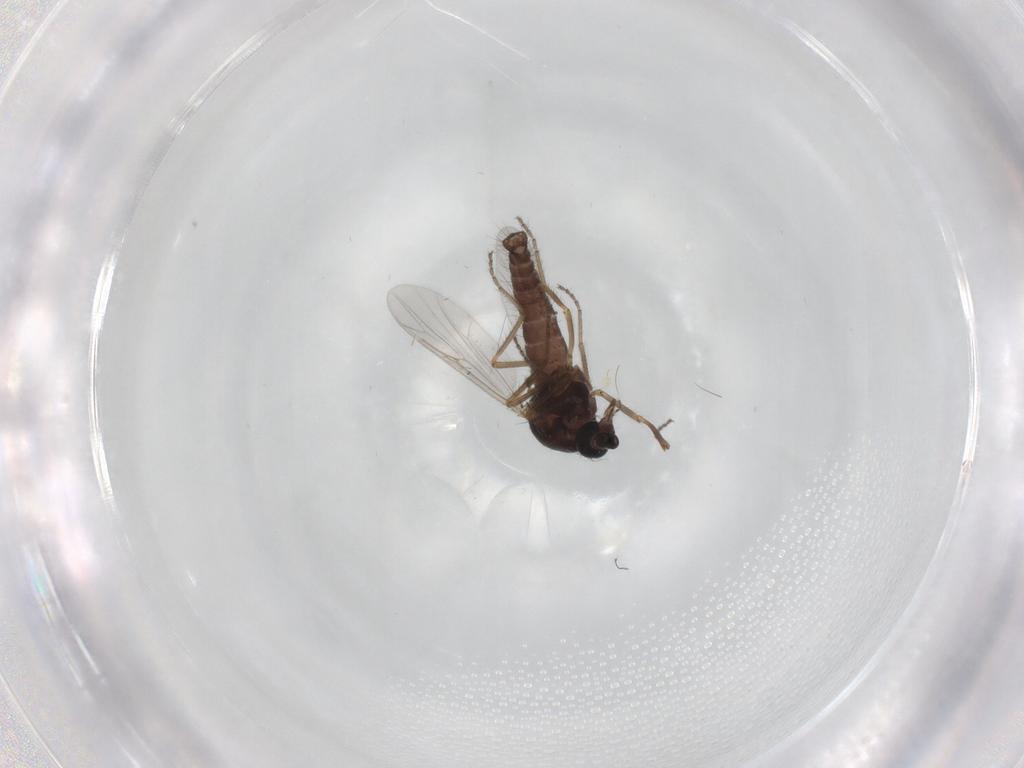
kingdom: Animalia
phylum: Arthropoda
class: Insecta
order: Diptera
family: Ceratopogonidae
